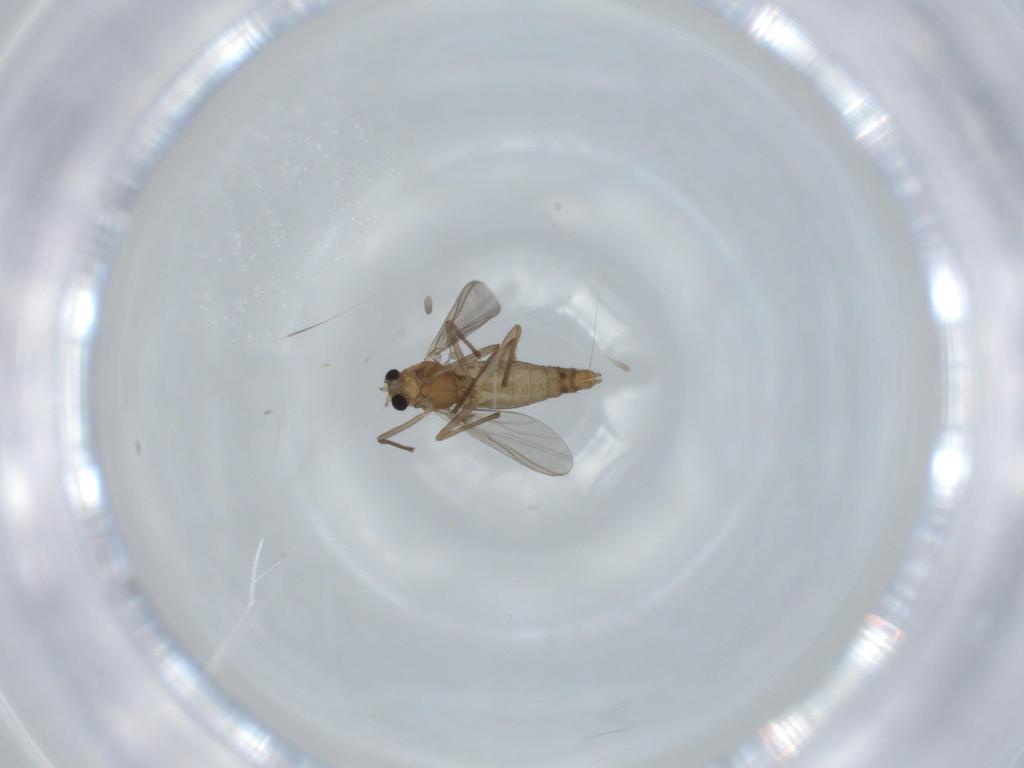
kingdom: Animalia
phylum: Arthropoda
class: Insecta
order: Diptera
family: Chironomidae
